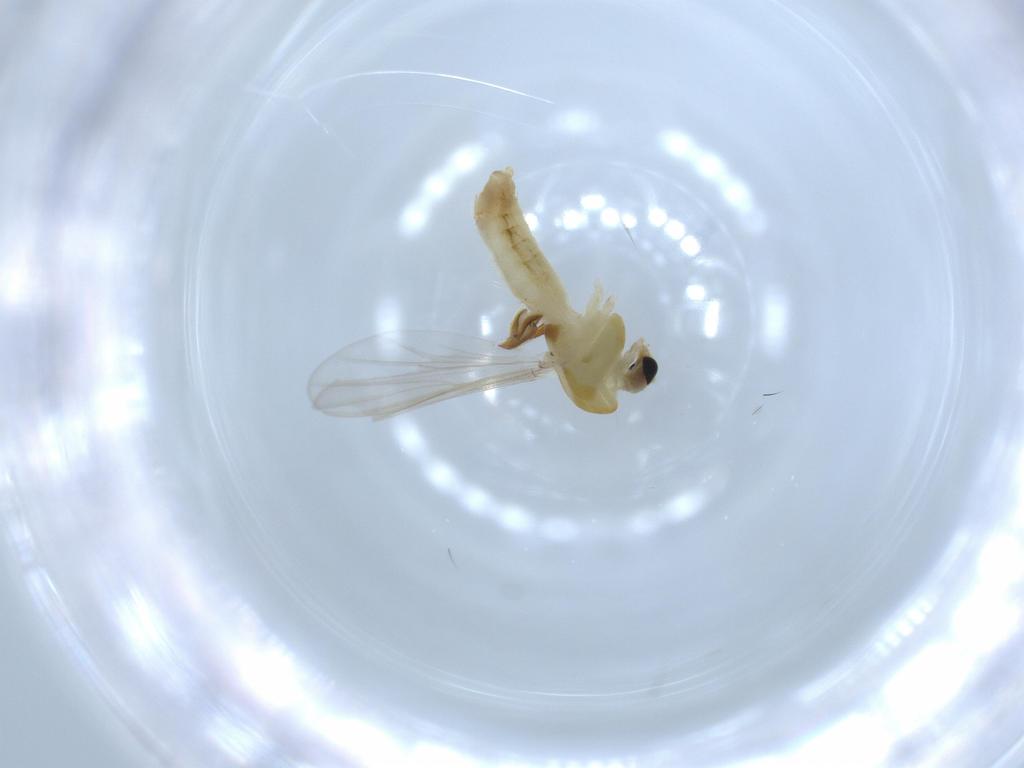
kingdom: Animalia
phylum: Arthropoda
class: Insecta
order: Diptera
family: Chironomidae
